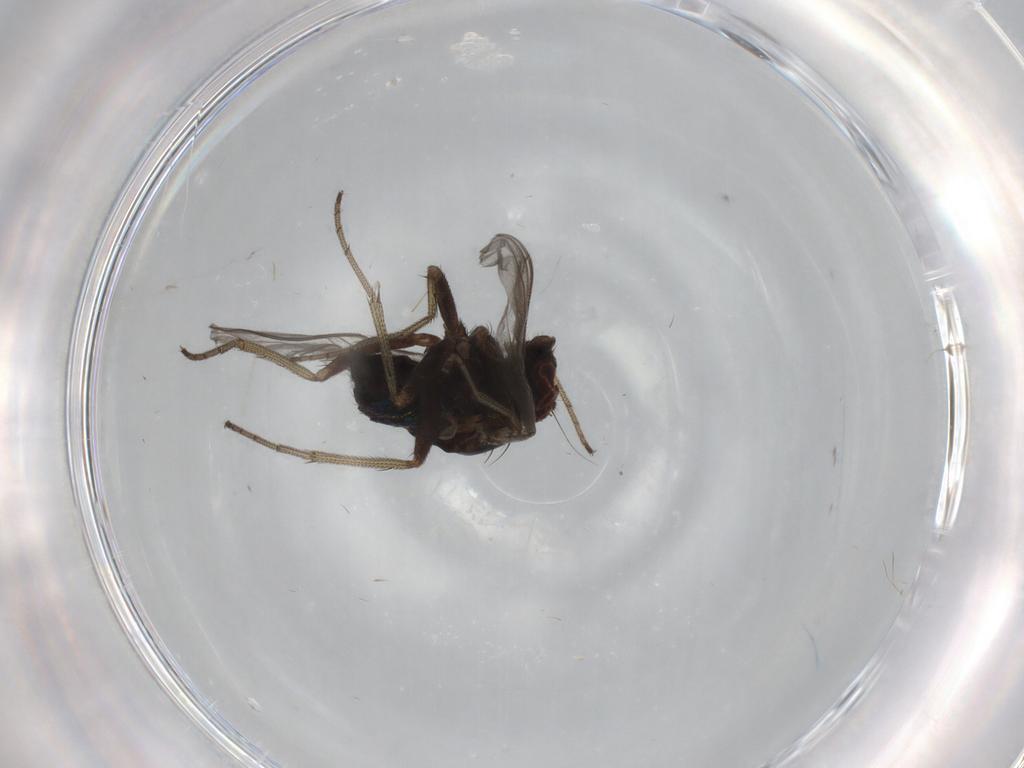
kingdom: Animalia
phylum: Arthropoda
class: Insecta
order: Diptera
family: Dolichopodidae
